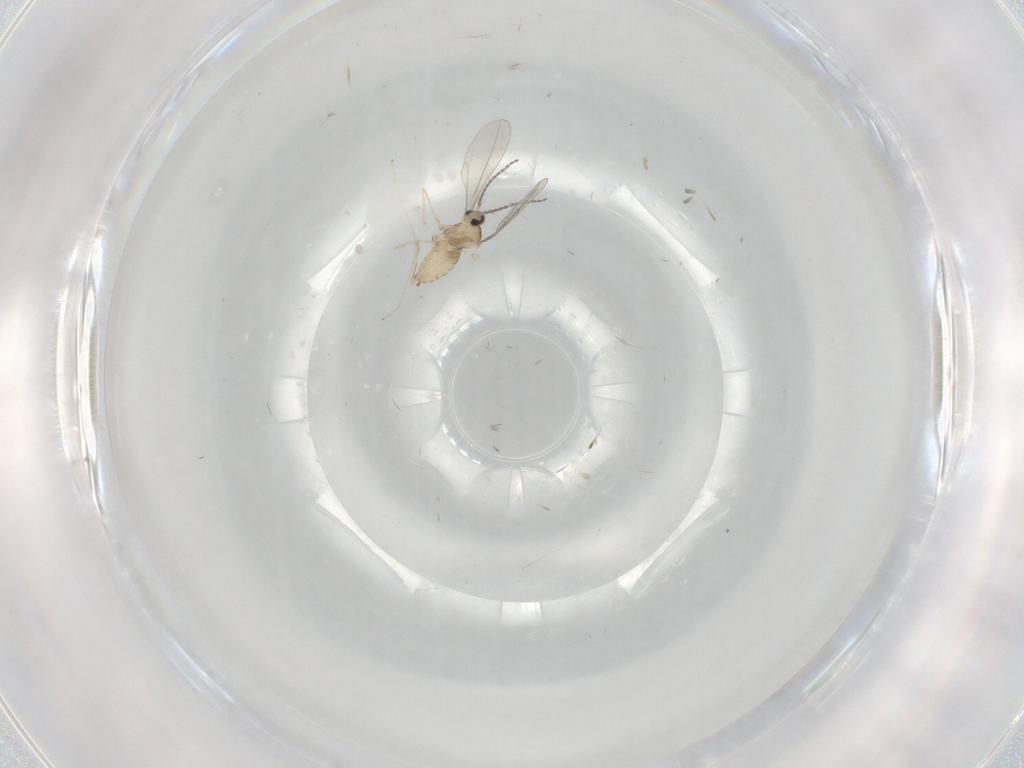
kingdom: Animalia
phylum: Arthropoda
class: Insecta
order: Diptera
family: Cecidomyiidae
